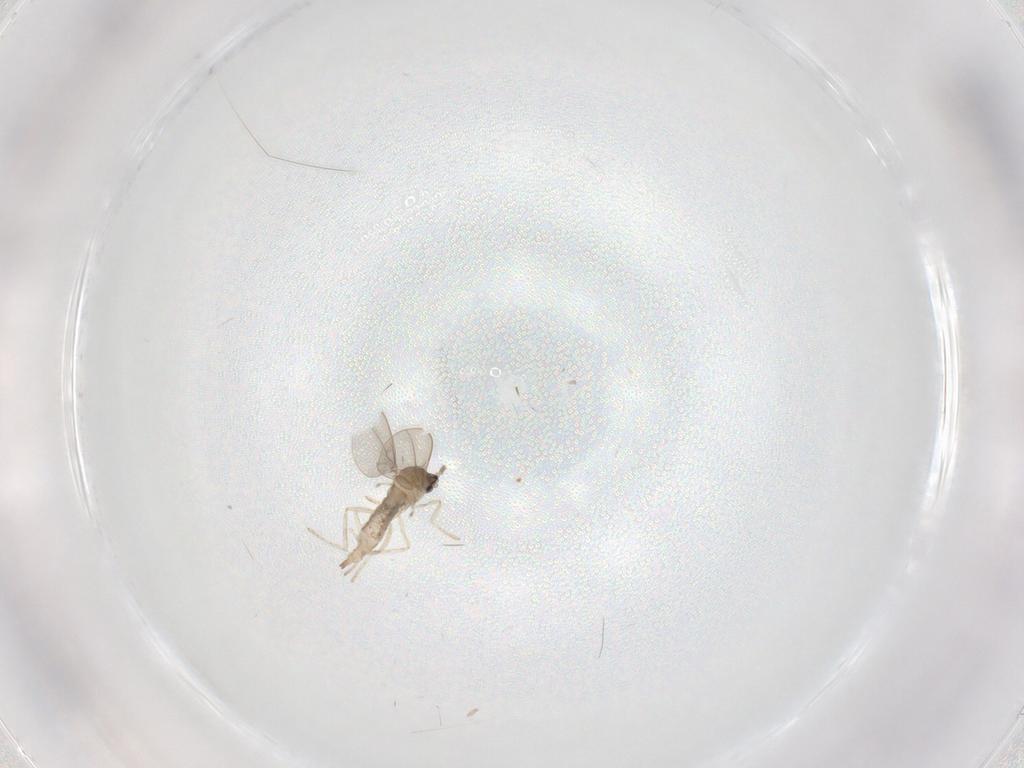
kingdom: Animalia
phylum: Arthropoda
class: Insecta
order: Diptera
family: Cecidomyiidae
